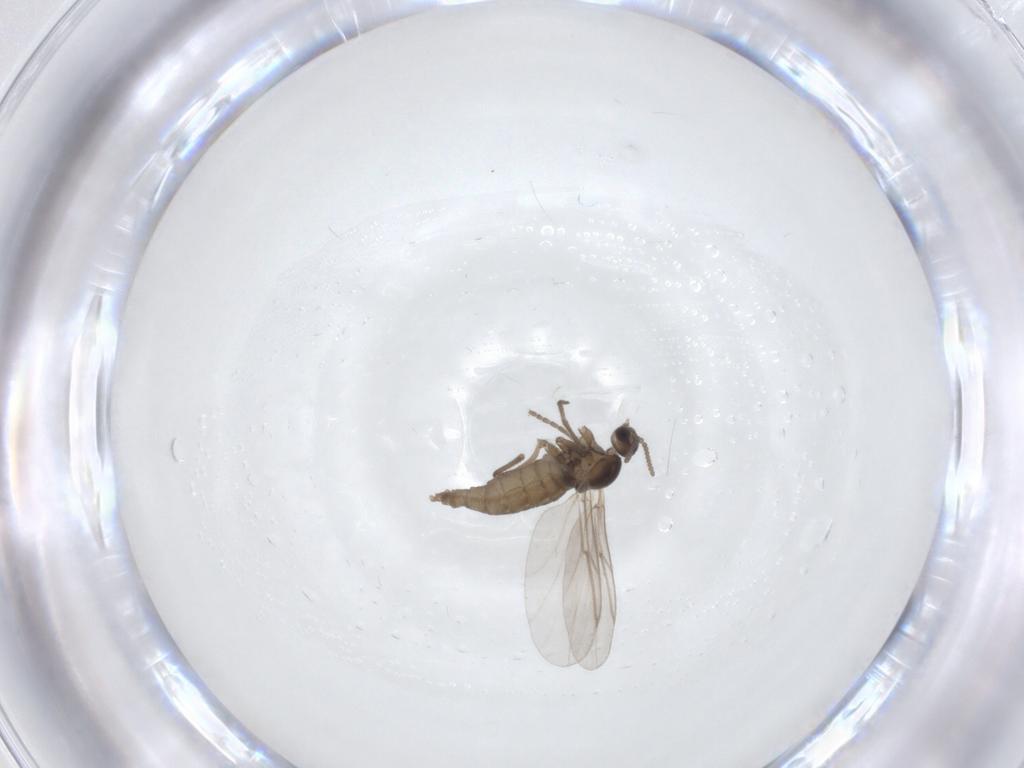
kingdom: Animalia
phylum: Arthropoda
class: Insecta
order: Diptera
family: Cecidomyiidae
